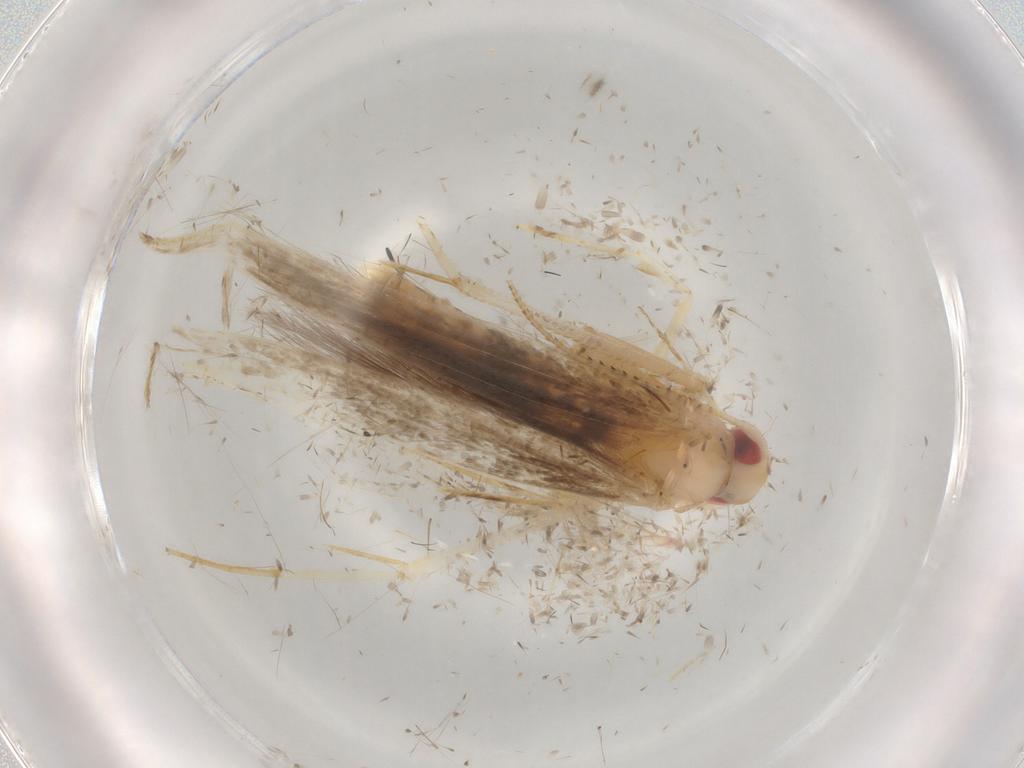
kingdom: Animalia
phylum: Arthropoda
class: Insecta
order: Lepidoptera
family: Cosmopterigidae
